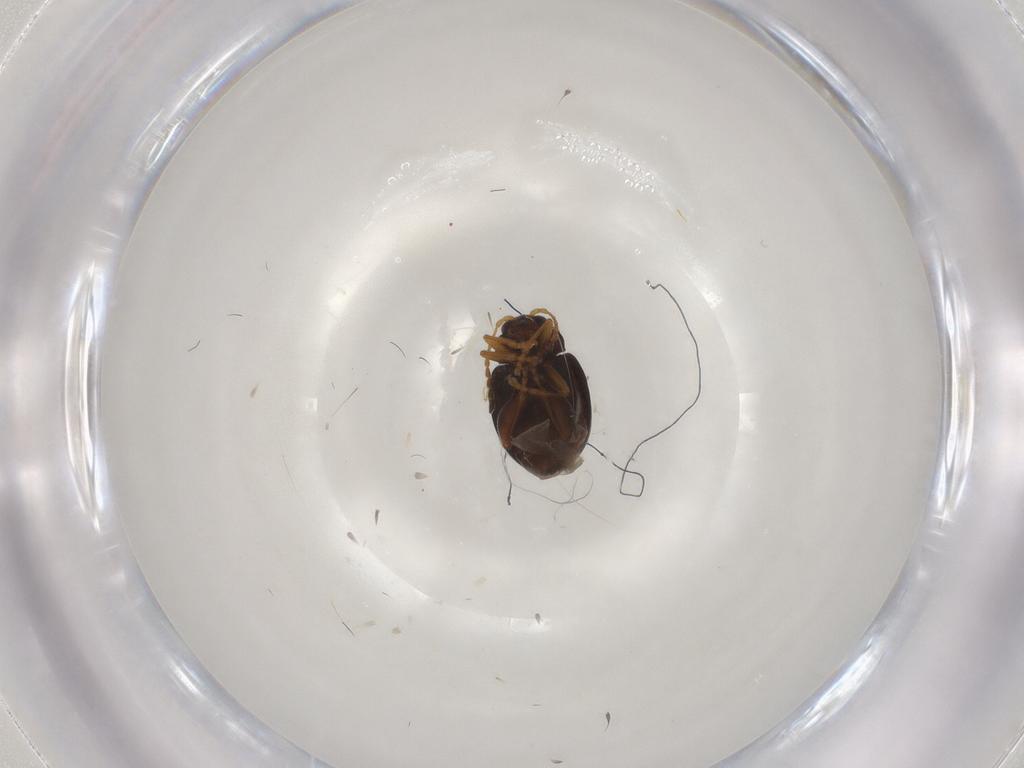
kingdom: Animalia
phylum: Arthropoda
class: Insecta
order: Coleoptera
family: Chrysomelidae
